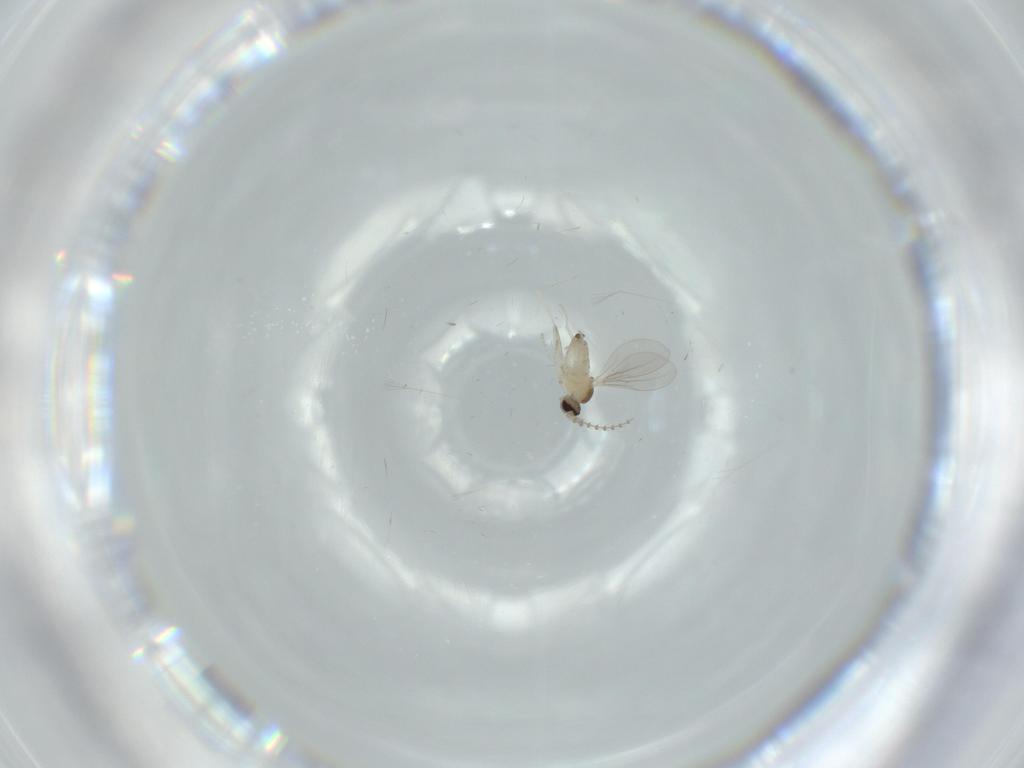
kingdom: Animalia
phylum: Arthropoda
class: Insecta
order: Diptera
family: Cecidomyiidae
